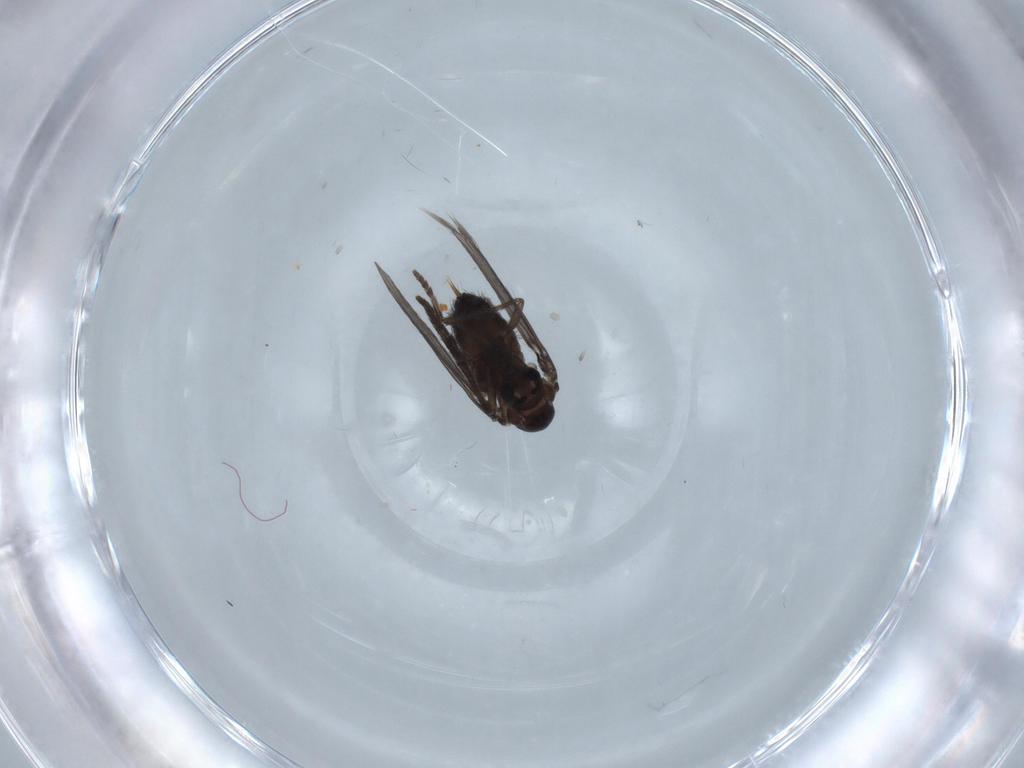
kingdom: Animalia
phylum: Arthropoda
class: Insecta
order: Diptera
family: Psychodidae
